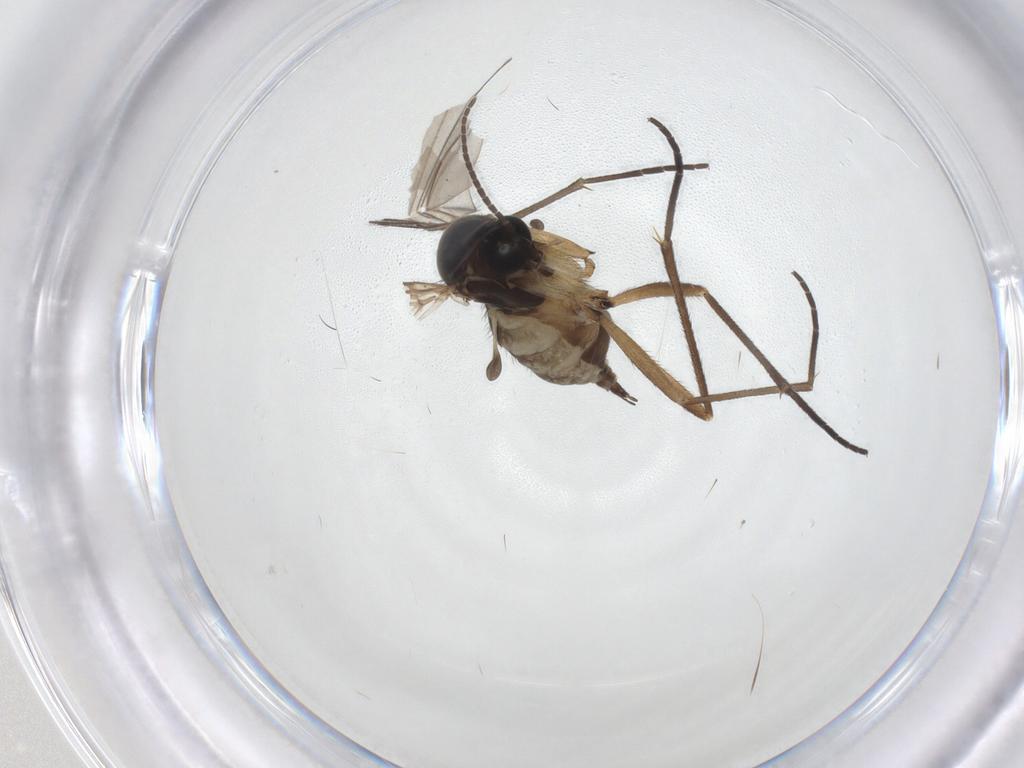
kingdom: Animalia
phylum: Arthropoda
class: Insecta
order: Diptera
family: Sciaridae
